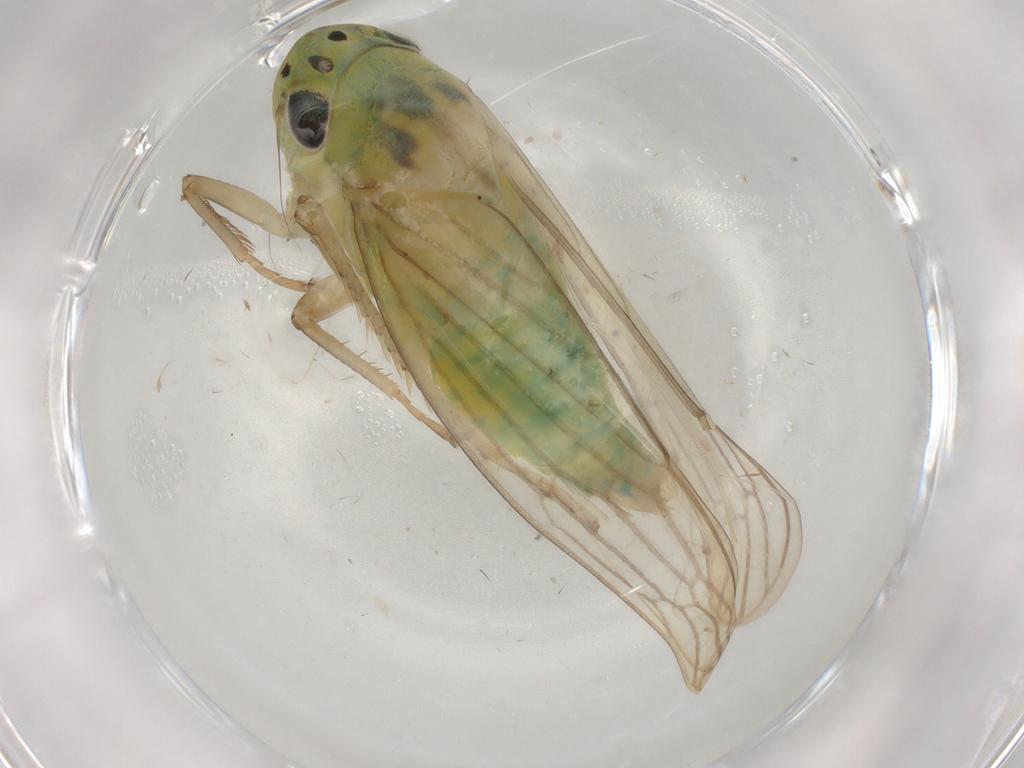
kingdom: Animalia
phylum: Arthropoda
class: Insecta
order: Hemiptera
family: Cicadellidae
